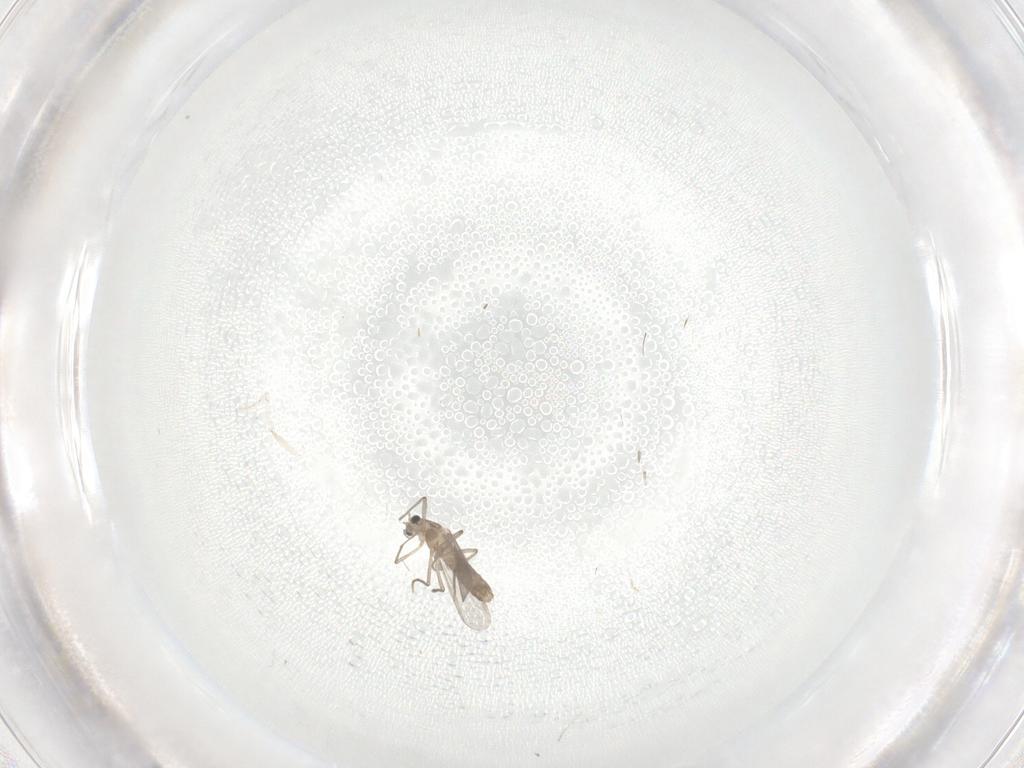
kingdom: Animalia
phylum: Arthropoda
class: Insecta
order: Diptera
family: Chironomidae
